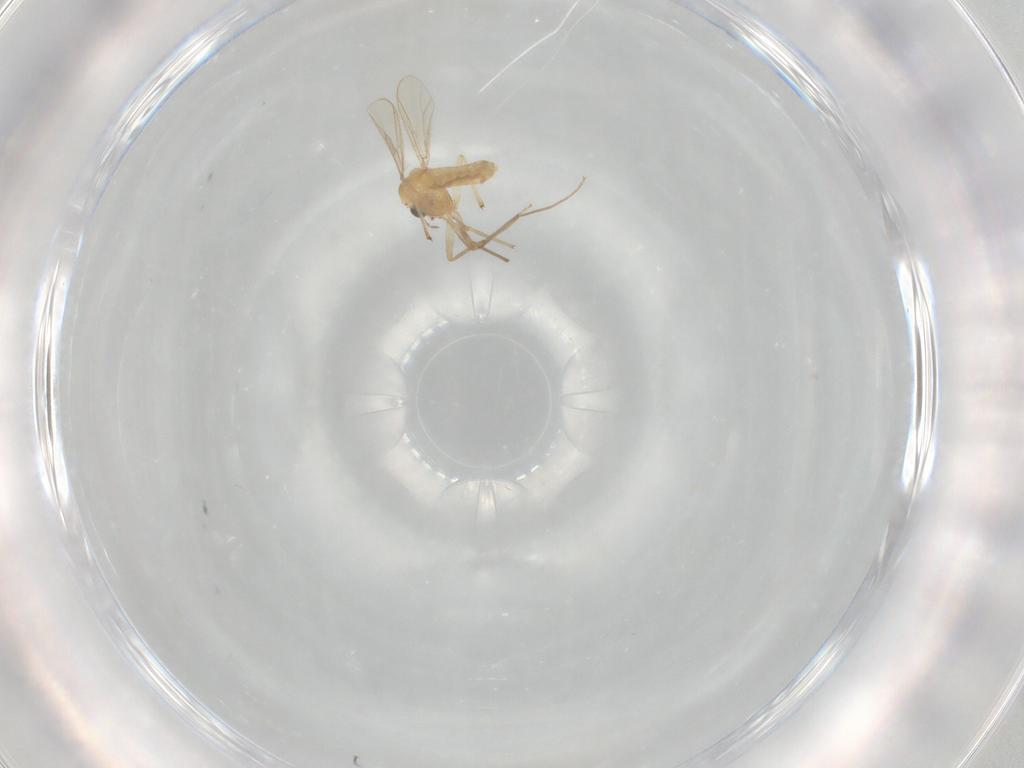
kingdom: Animalia
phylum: Arthropoda
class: Insecta
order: Diptera
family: Chironomidae
